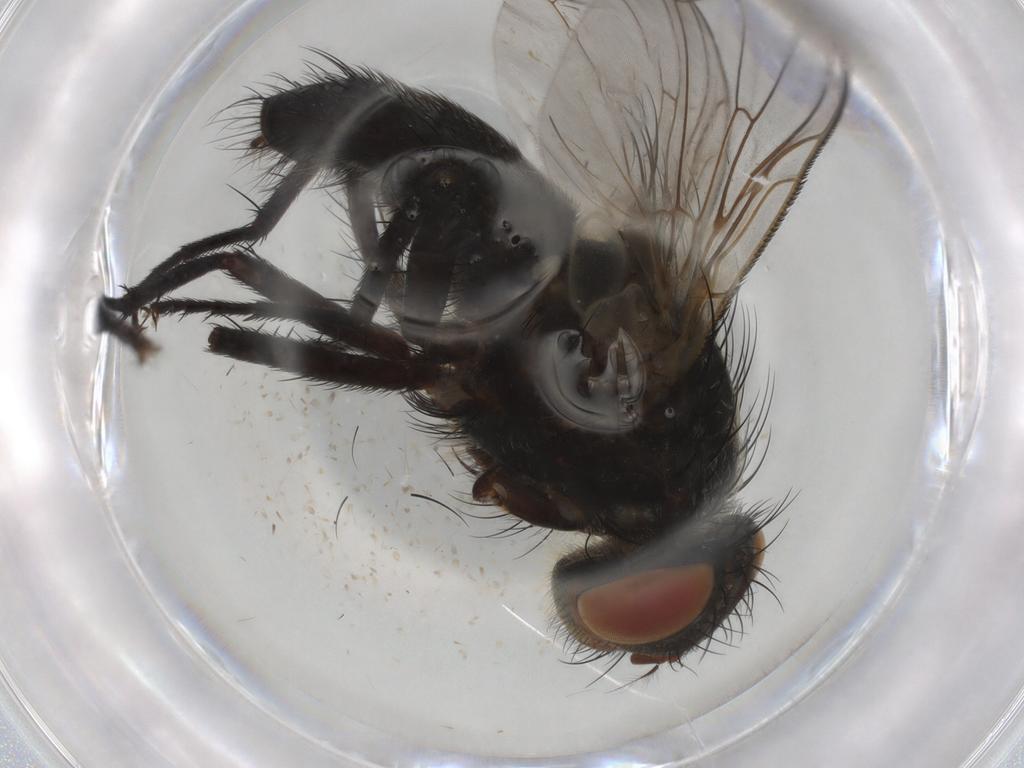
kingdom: Animalia
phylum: Arthropoda
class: Insecta
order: Diptera
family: Polleniidae
